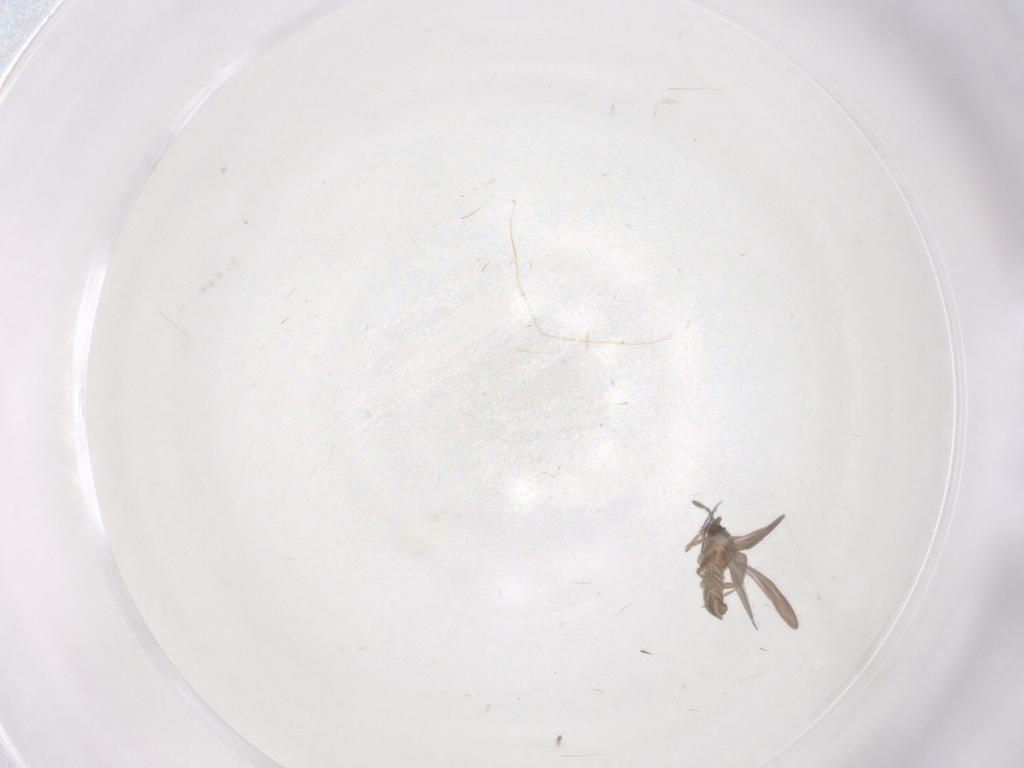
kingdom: Animalia
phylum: Arthropoda
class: Insecta
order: Hemiptera
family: Enicocephalidae
